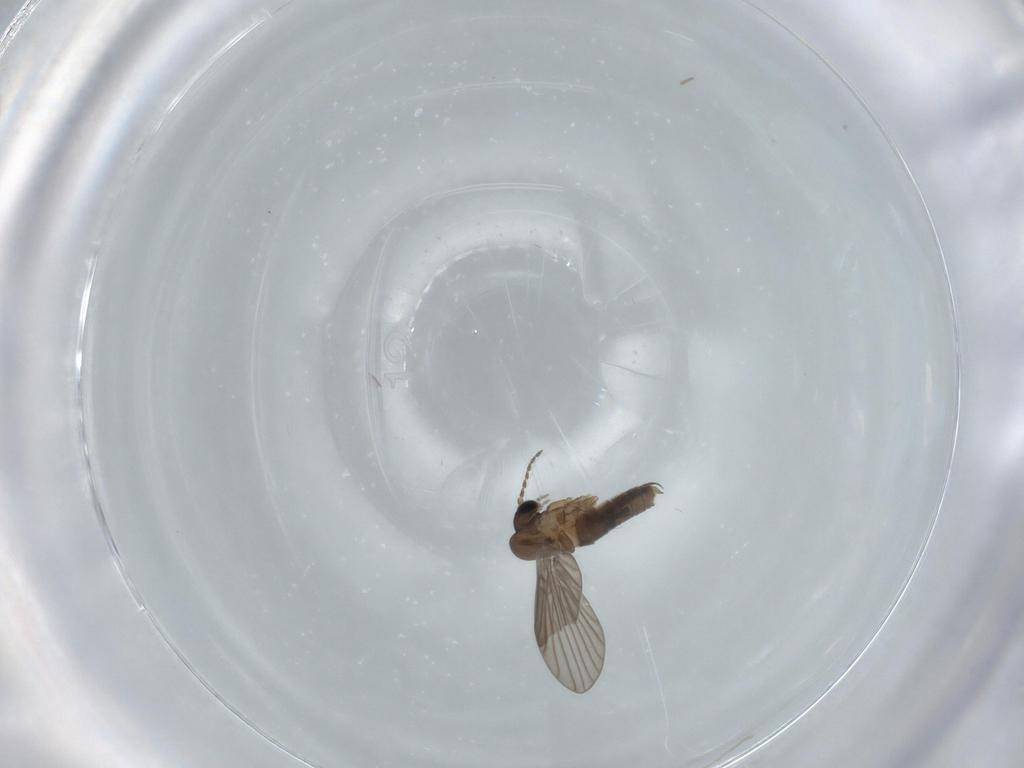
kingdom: Animalia
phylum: Arthropoda
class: Insecta
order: Diptera
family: Psychodidae
